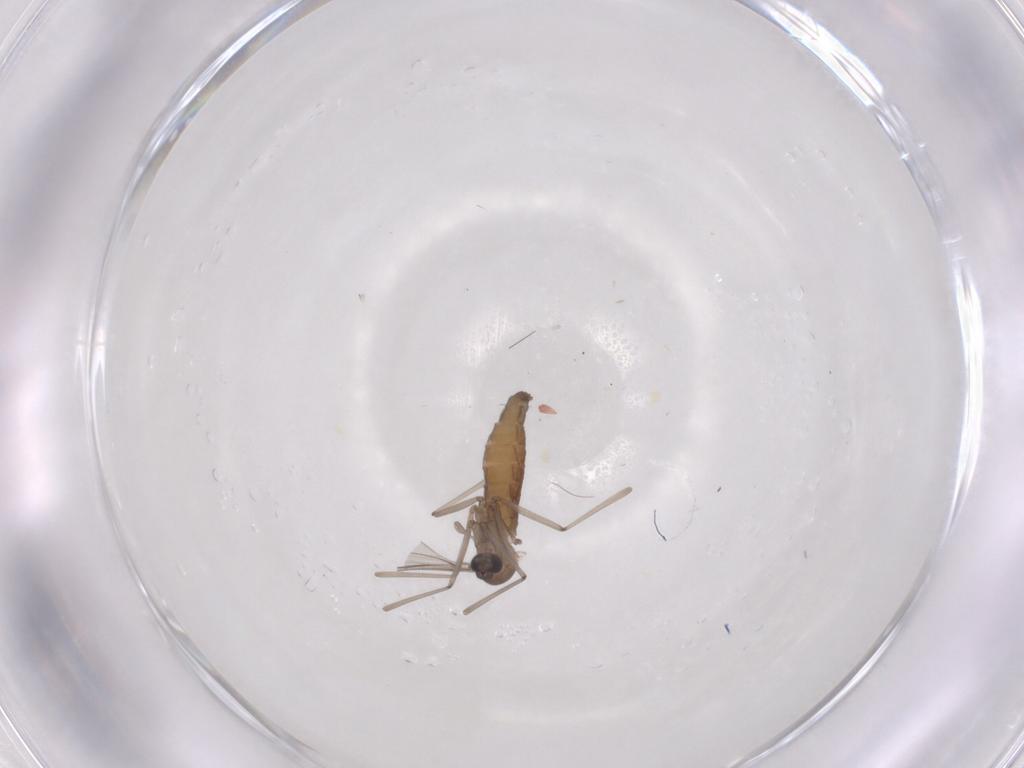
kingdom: Animalia
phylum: Arthropoda
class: Insecta
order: Diptera
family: Cecidomyiidae
